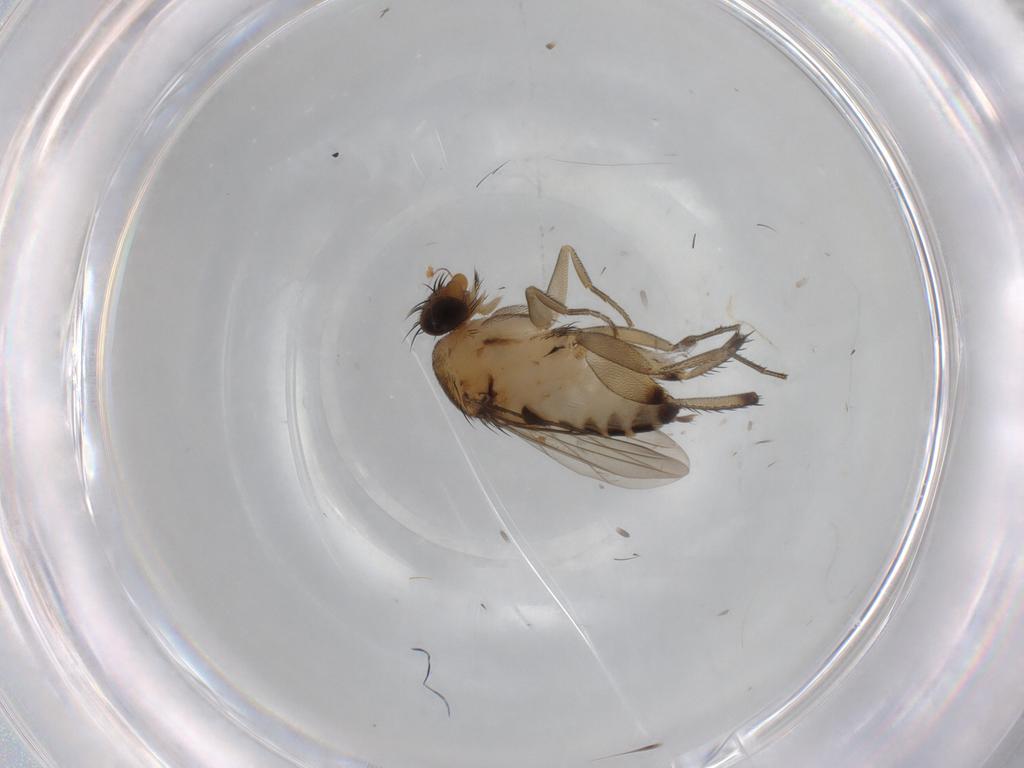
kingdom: Animalia
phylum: Arthropoda
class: Insecta
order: Diptera
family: Phoridae
